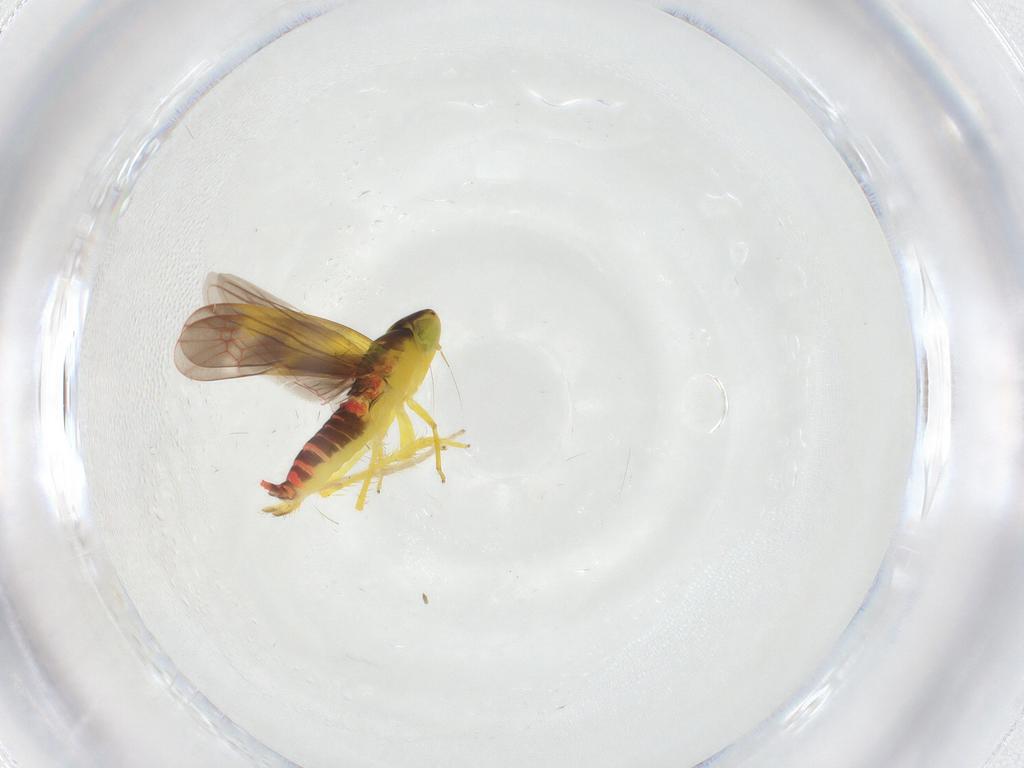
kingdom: Animalia
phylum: Arthropoda
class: Insecta
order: Hemiptera
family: Cicadellidae
